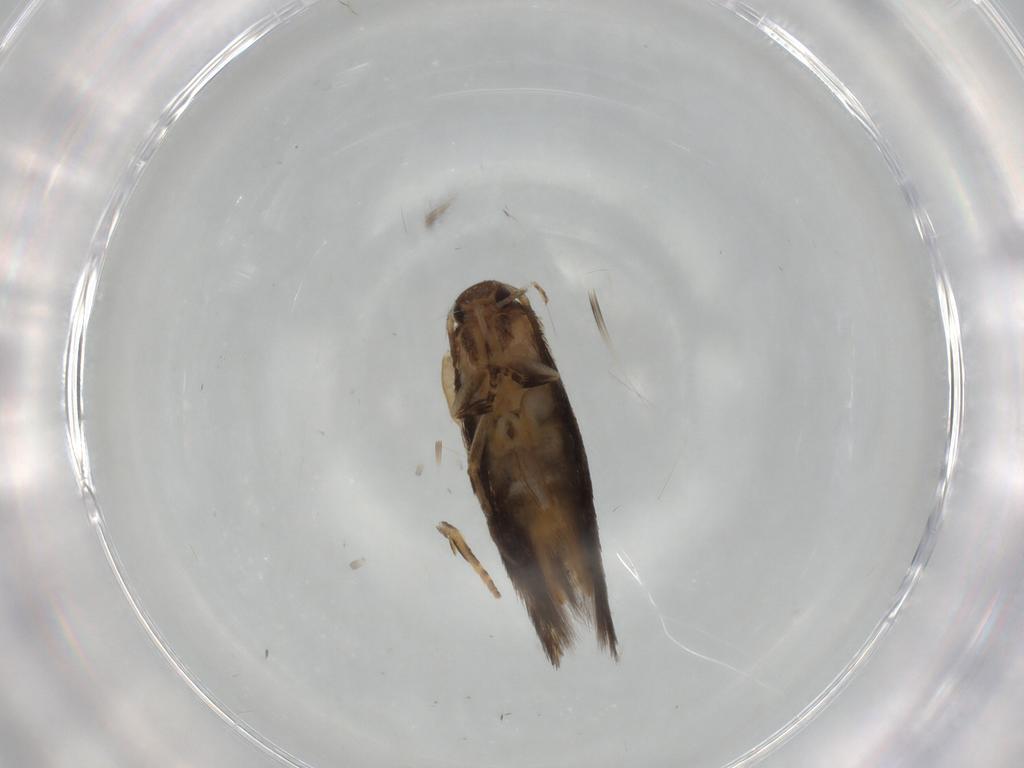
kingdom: Animalia
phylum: Arthropoda
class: Insecta
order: Lepidoptera
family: Elachistidae
